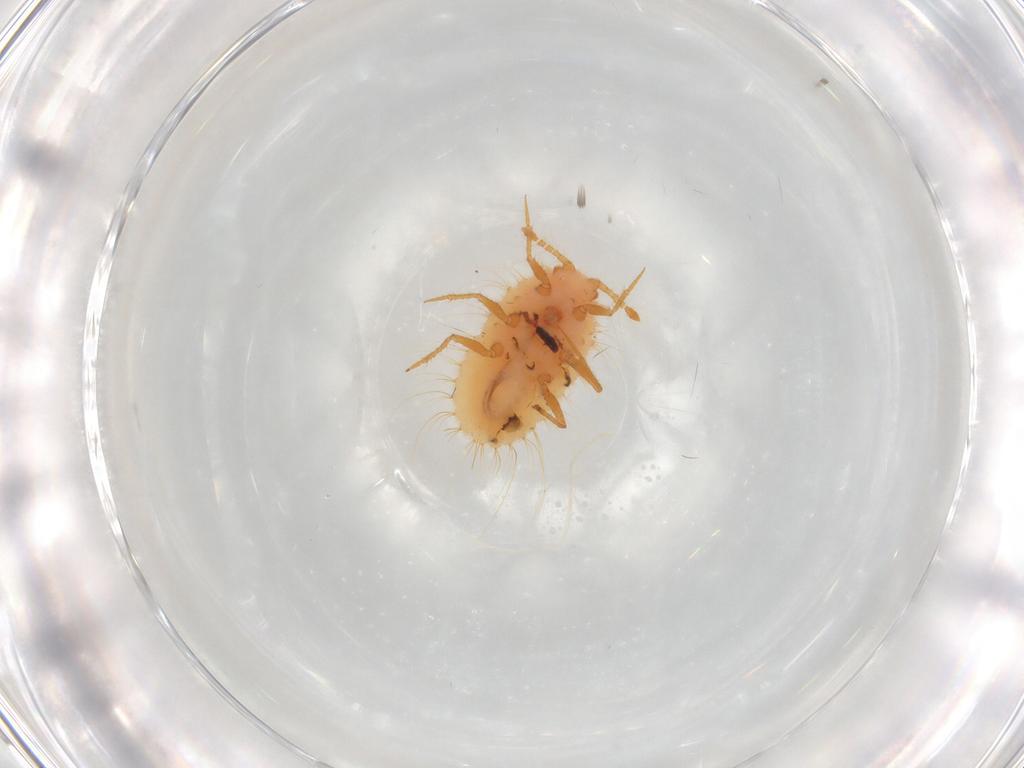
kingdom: Animalia
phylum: Arthropoda
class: Insecta
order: Hemiptera
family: Coccoidea_incertae_sedis
